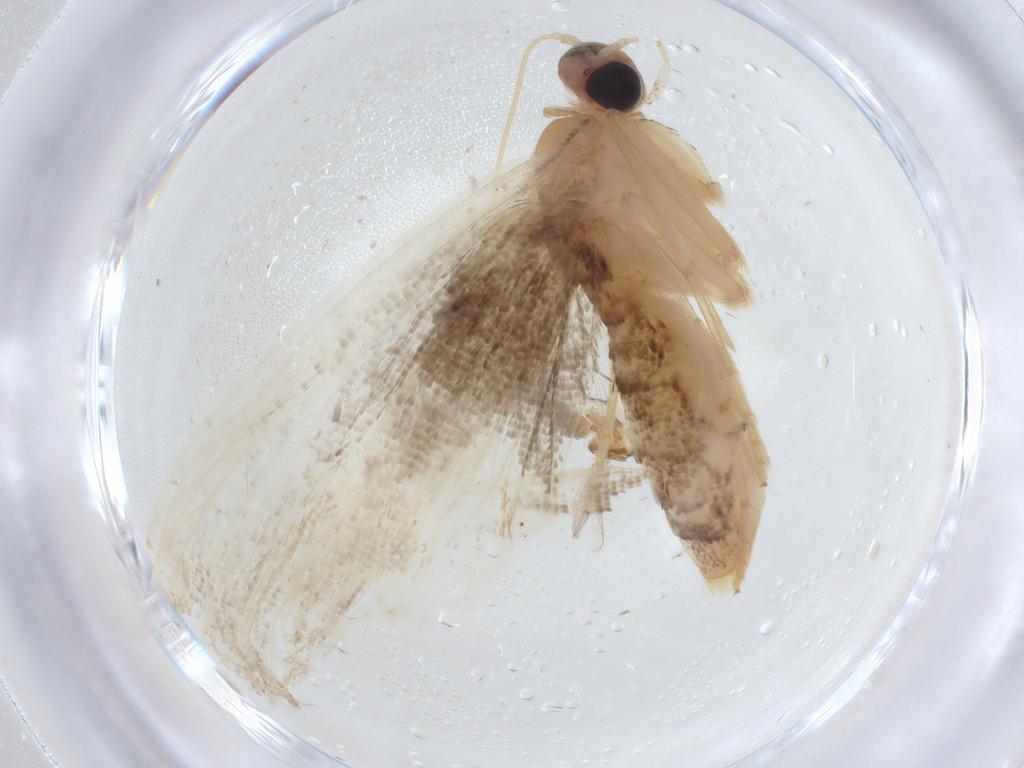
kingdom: Animalia
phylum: Arthropoda
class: Insecta
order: Lepidoptera
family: Erebidae
